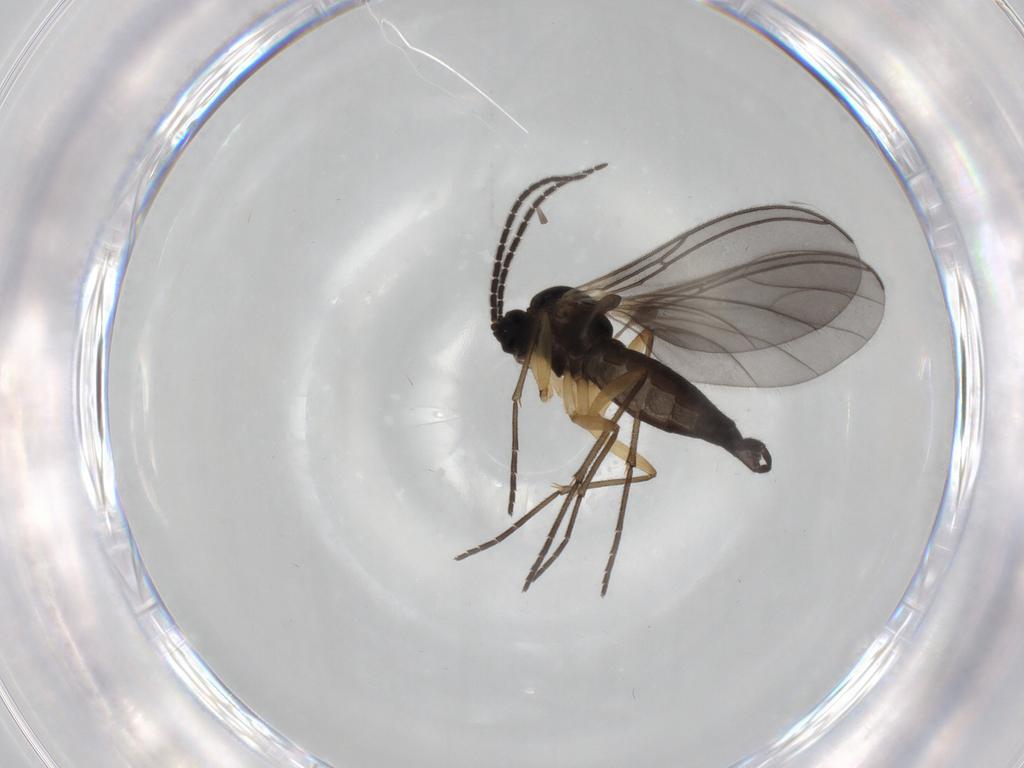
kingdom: Animalia
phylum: Arthropoda
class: Insecta
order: Diptera
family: Sciaridae
